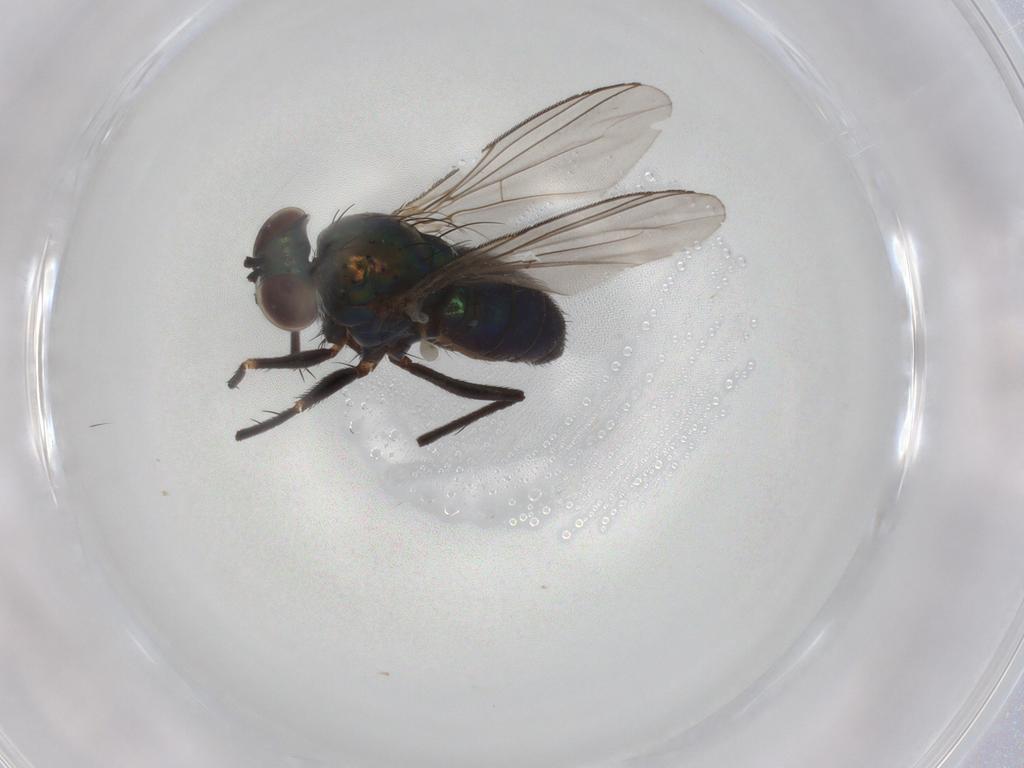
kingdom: Animalia
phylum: Arthropoda
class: Insecta
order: Diptera
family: Dolichopodidae
